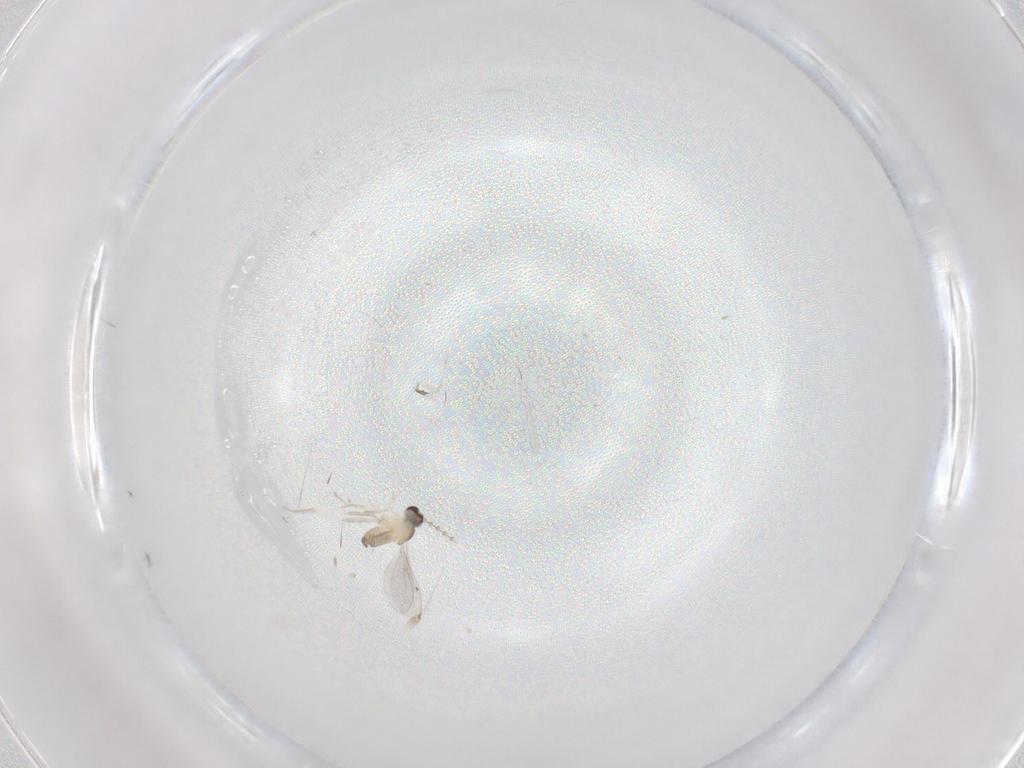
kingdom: Animalia
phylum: Arthropoda
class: Insecta
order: Diptera
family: Cecidomyiidae
